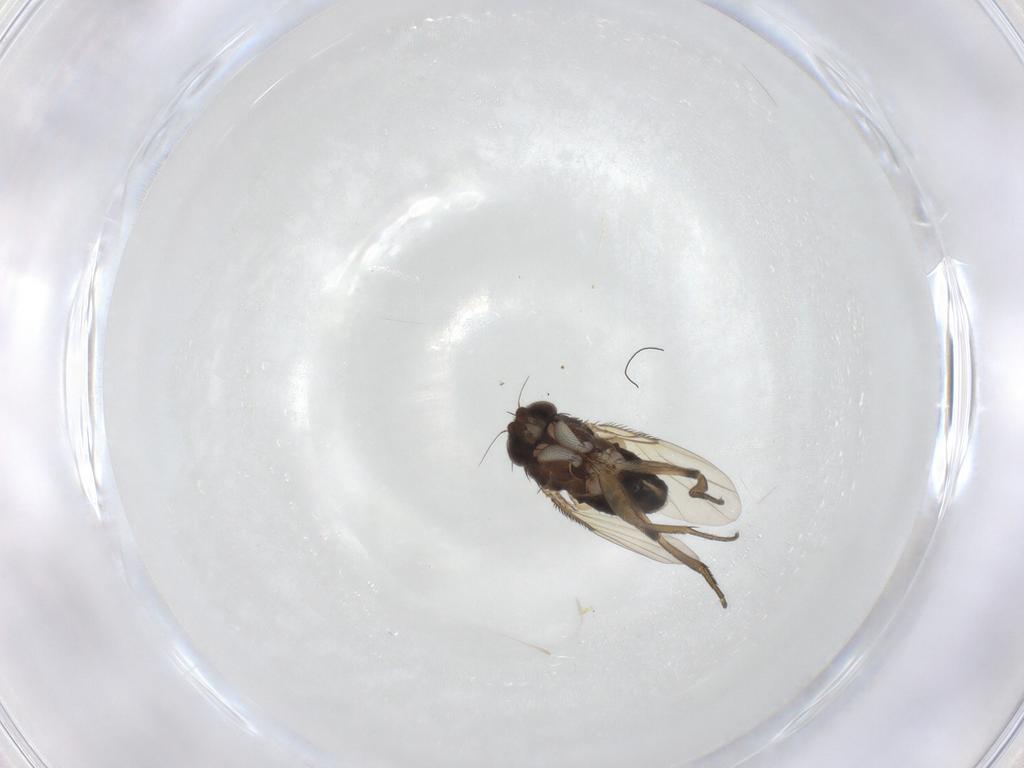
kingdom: Animalia
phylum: Arthropoda
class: Insecta
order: Diptera
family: Phoridae
